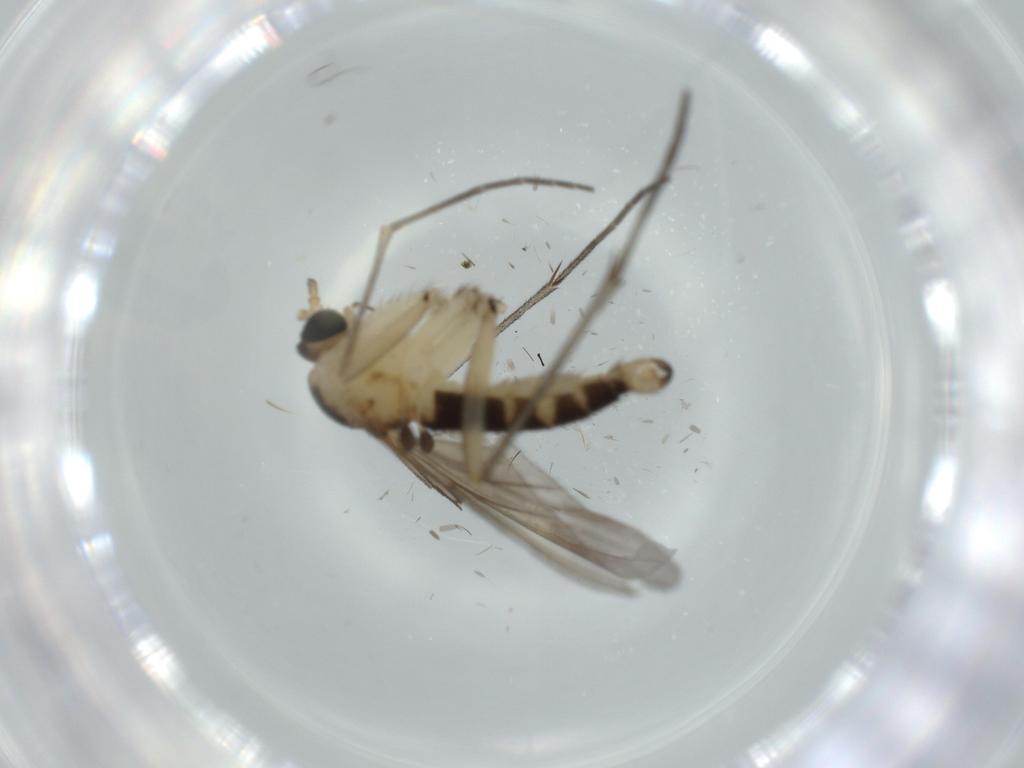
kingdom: Animalia
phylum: Arthropoda
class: Insecta
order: Diptera
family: Sciaridae
